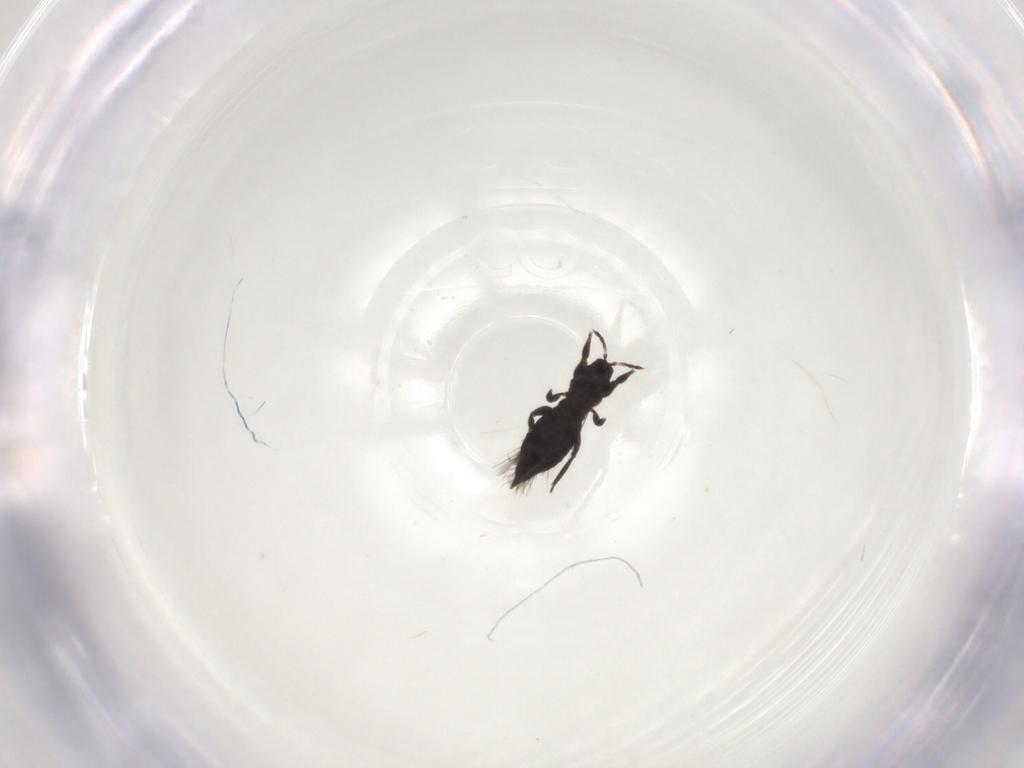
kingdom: Animalia
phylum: Arthropoda
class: Insecta
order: Thysanoptera
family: Aeolothripidae
